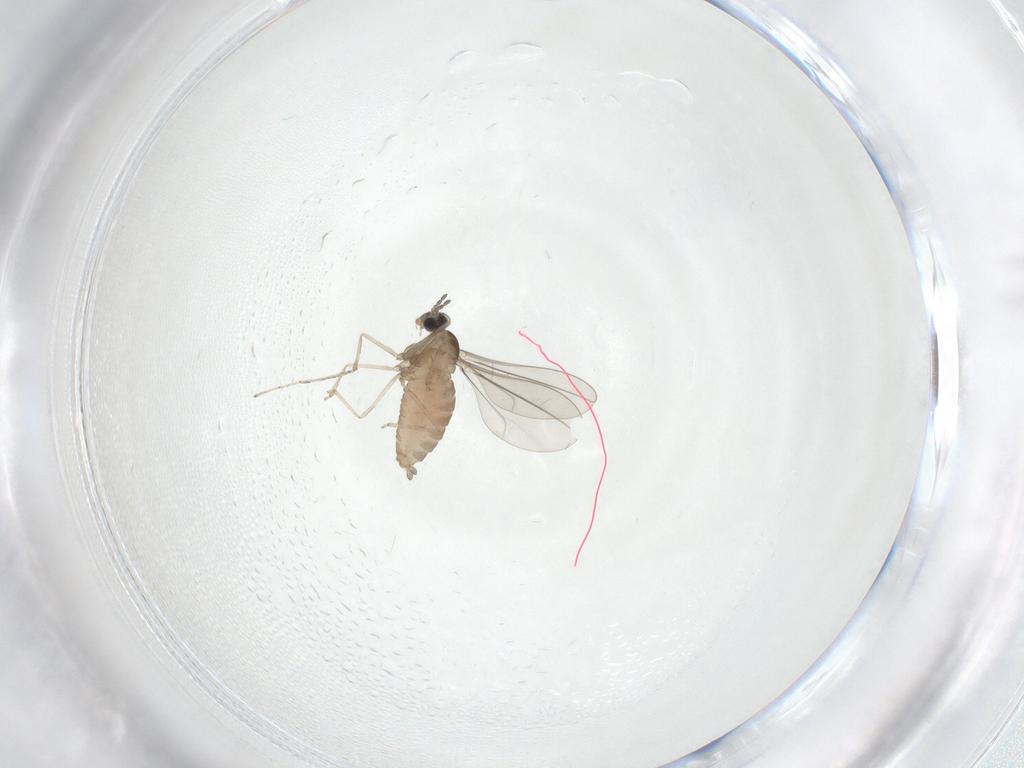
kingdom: Animalia
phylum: Arthropoda
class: Insecta
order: Diptera
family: Cecidomyiidae
